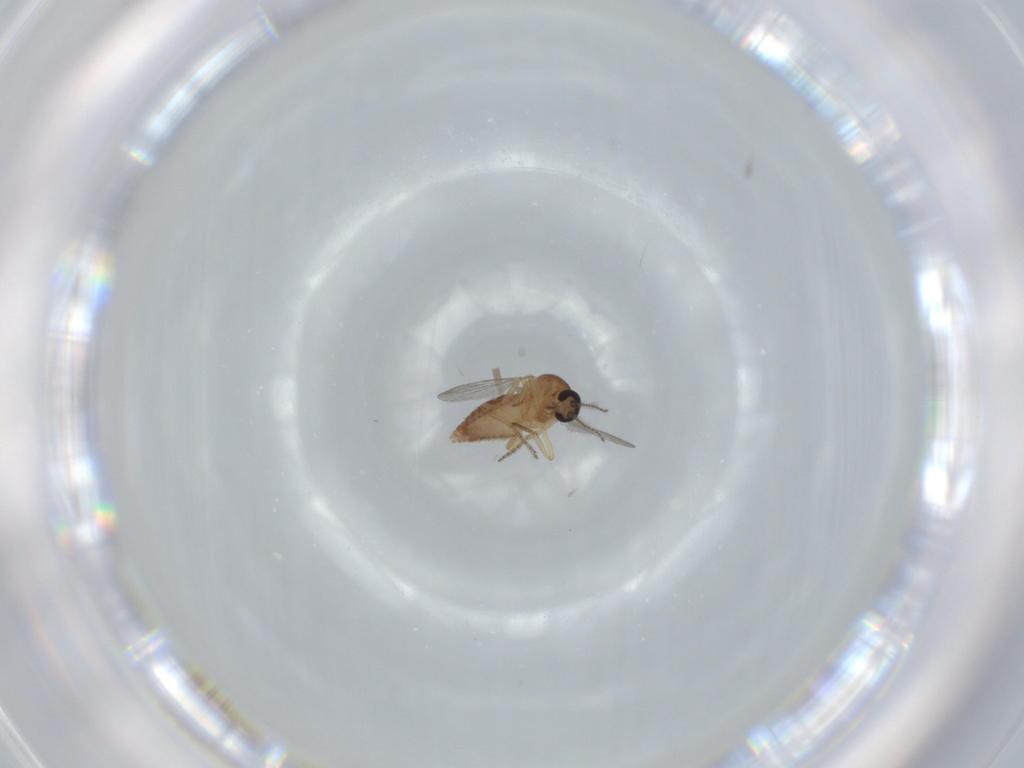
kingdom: Animalia
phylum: Arthropoda
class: Insecta
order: Diptera
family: Ceratopogonidae
